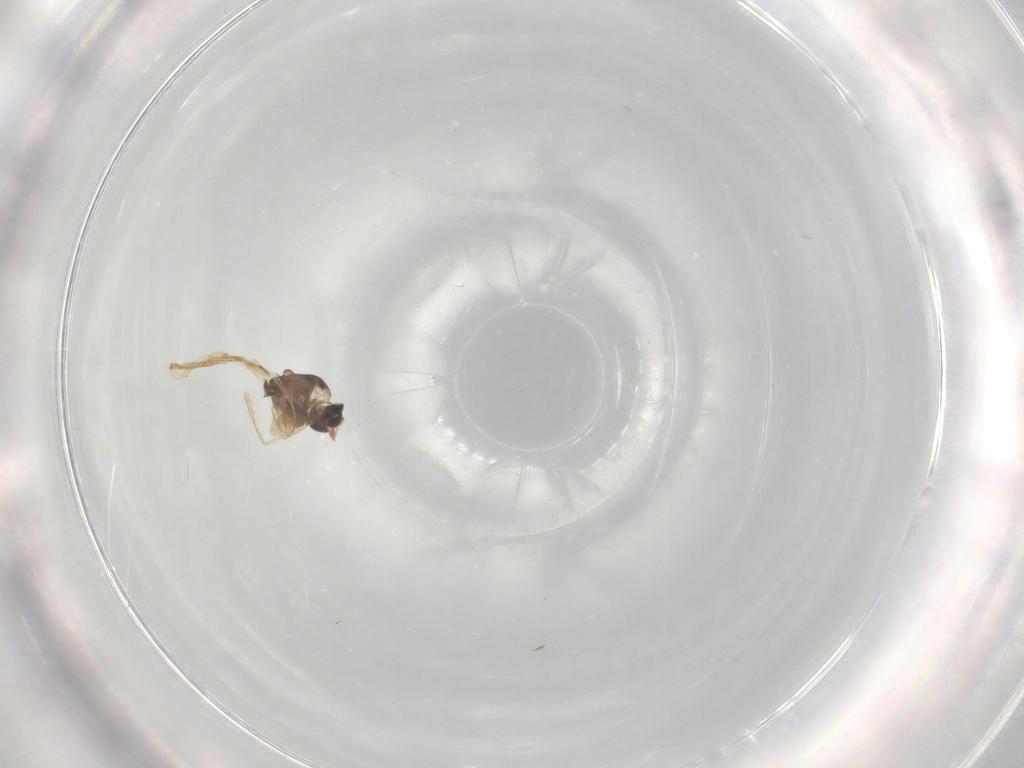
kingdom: Animalia
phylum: Arthropoda
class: Insecta
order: Diptera
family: Chironomidae
